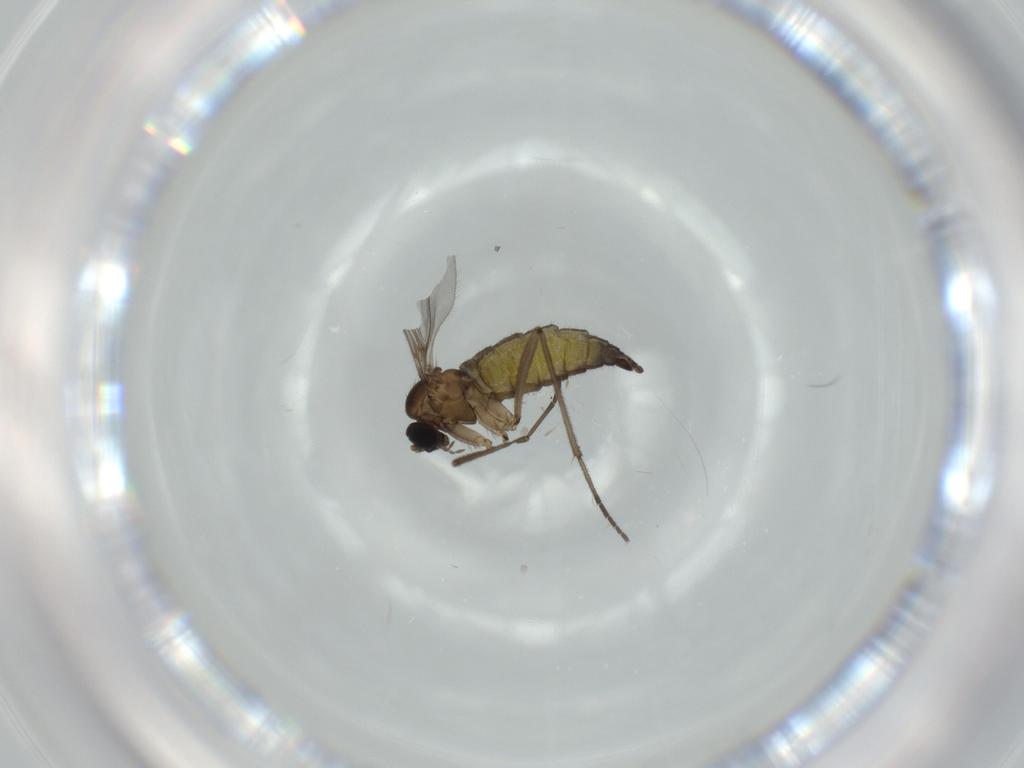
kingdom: Animalia
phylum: Arthropoda
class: Insecta
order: Diptera
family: Sciaridae
